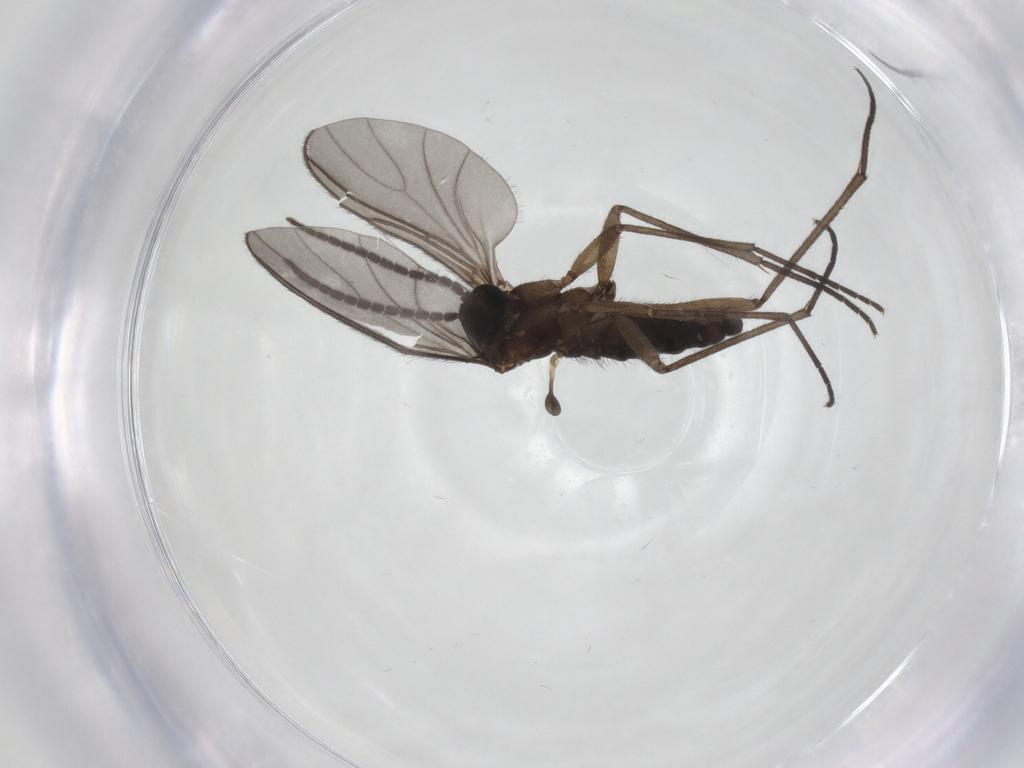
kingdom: Animalia
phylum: Arthropoda
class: Insecta
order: Diptera
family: Sciaridae
